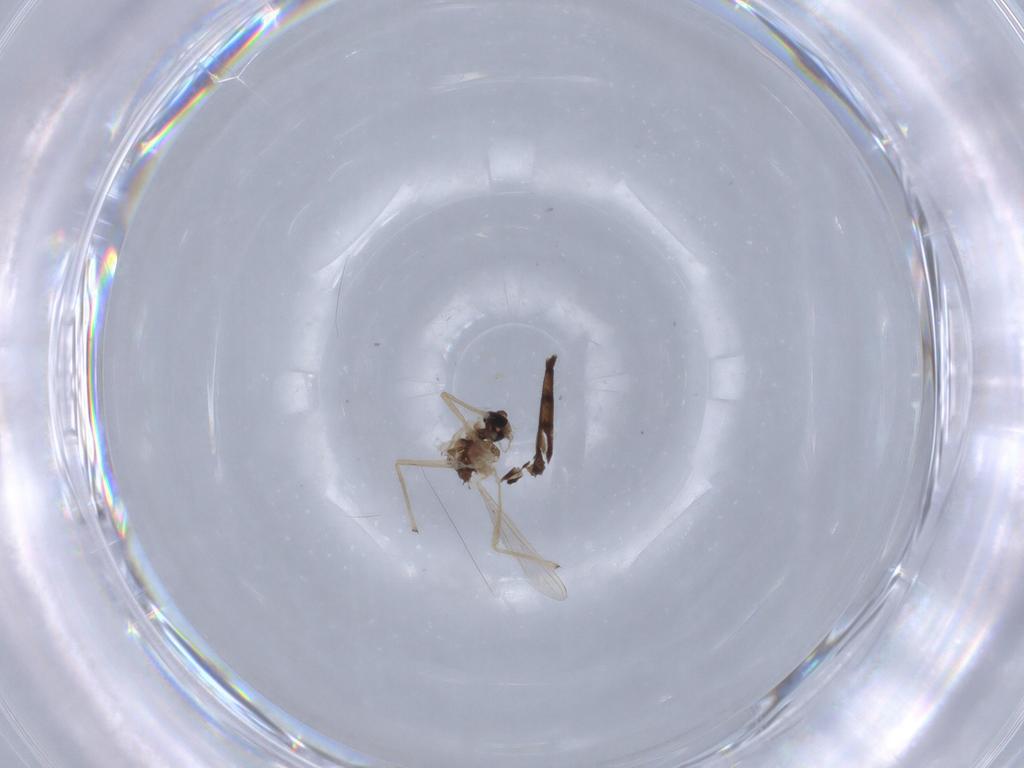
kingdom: Animalia
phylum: Arthropoda
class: Insecta
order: Diptera
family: Chironomidae
